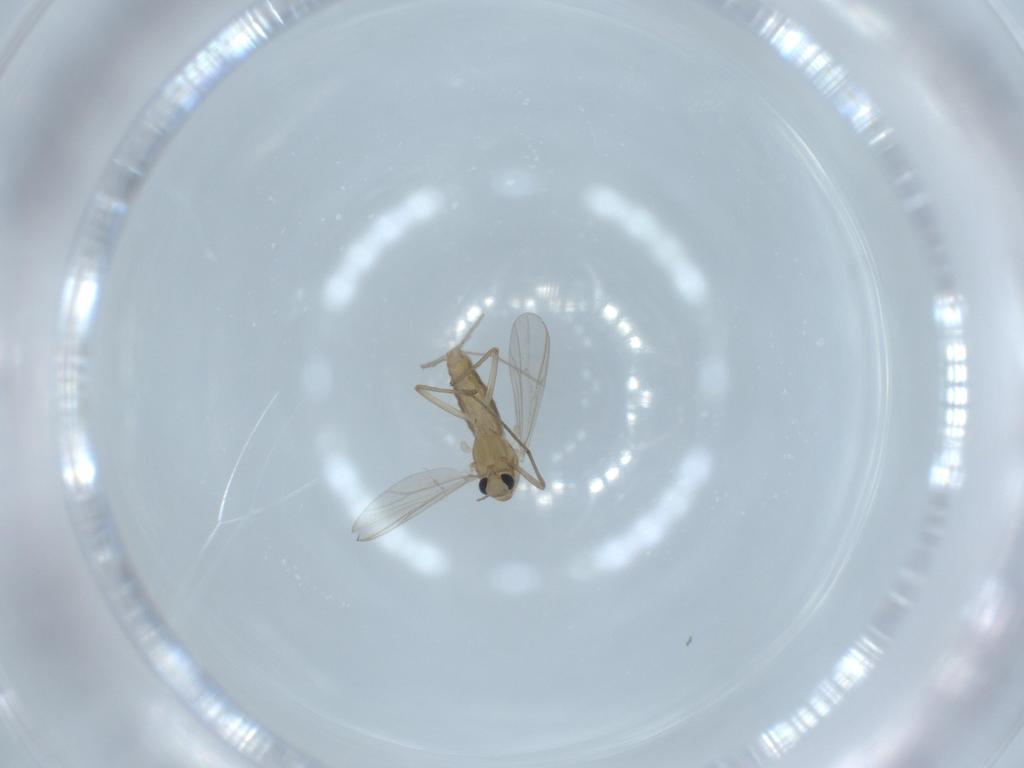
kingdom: Animalia
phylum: Arthropoda
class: Insecta
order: Diptera
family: Chironomidae
